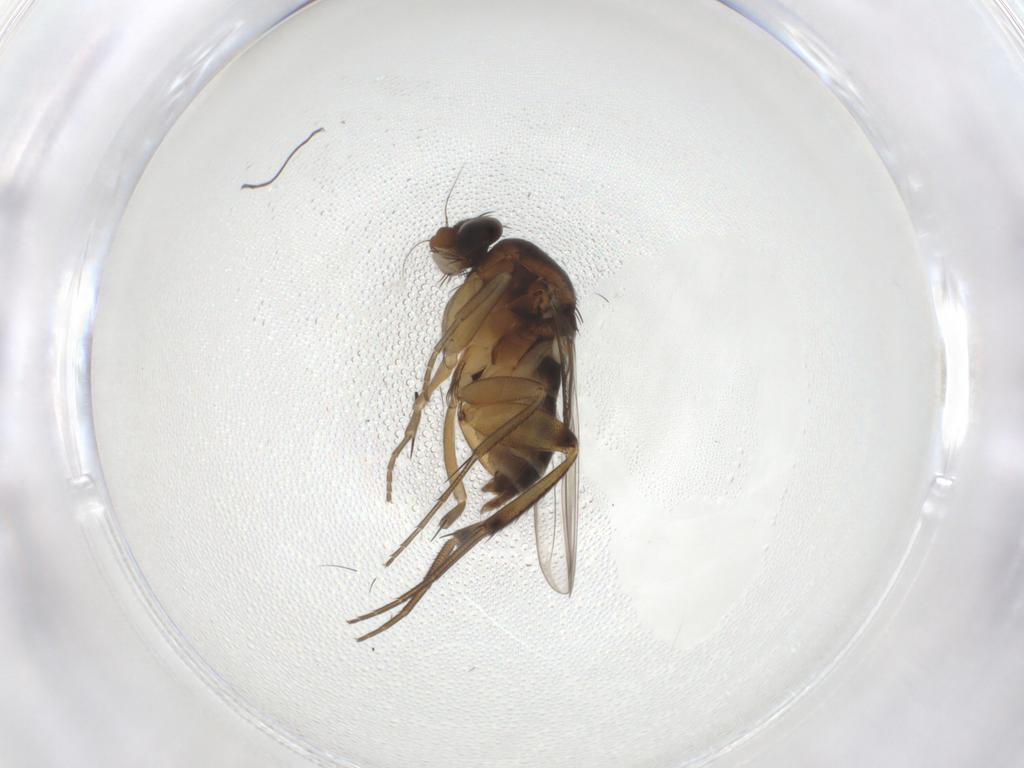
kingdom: Animalia
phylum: Arthropoda
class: Insecta
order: Diptera
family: Phoridae
